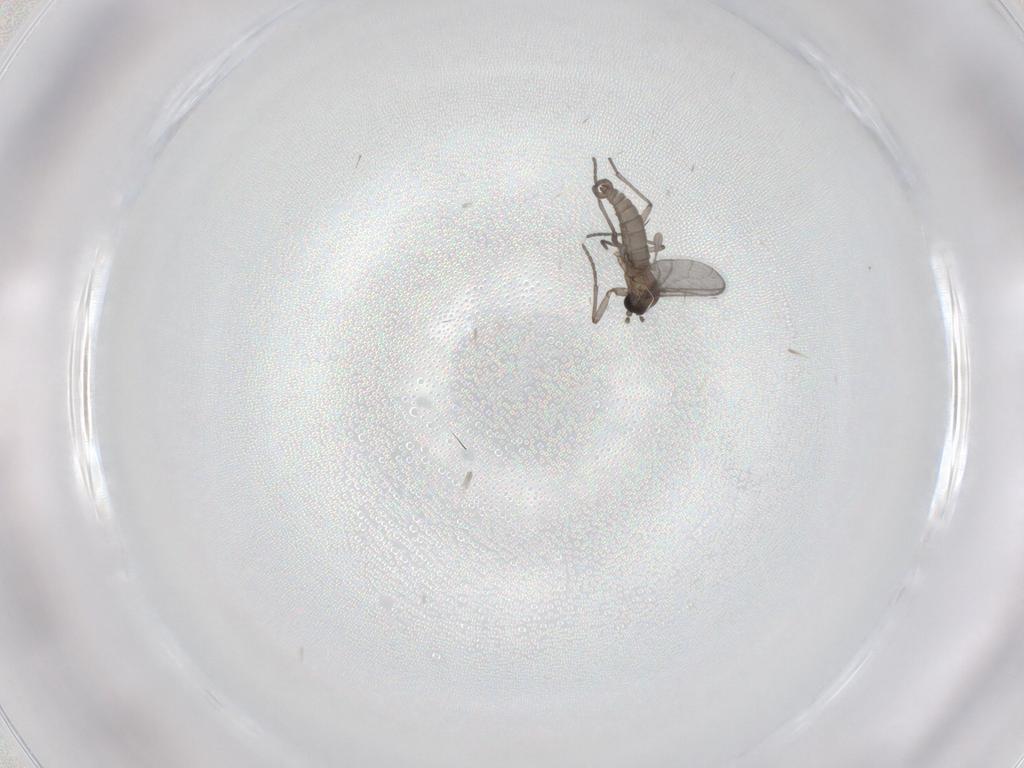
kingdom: Animalia
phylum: Arthropoda
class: Insecta
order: Diptera
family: Sciaridae
